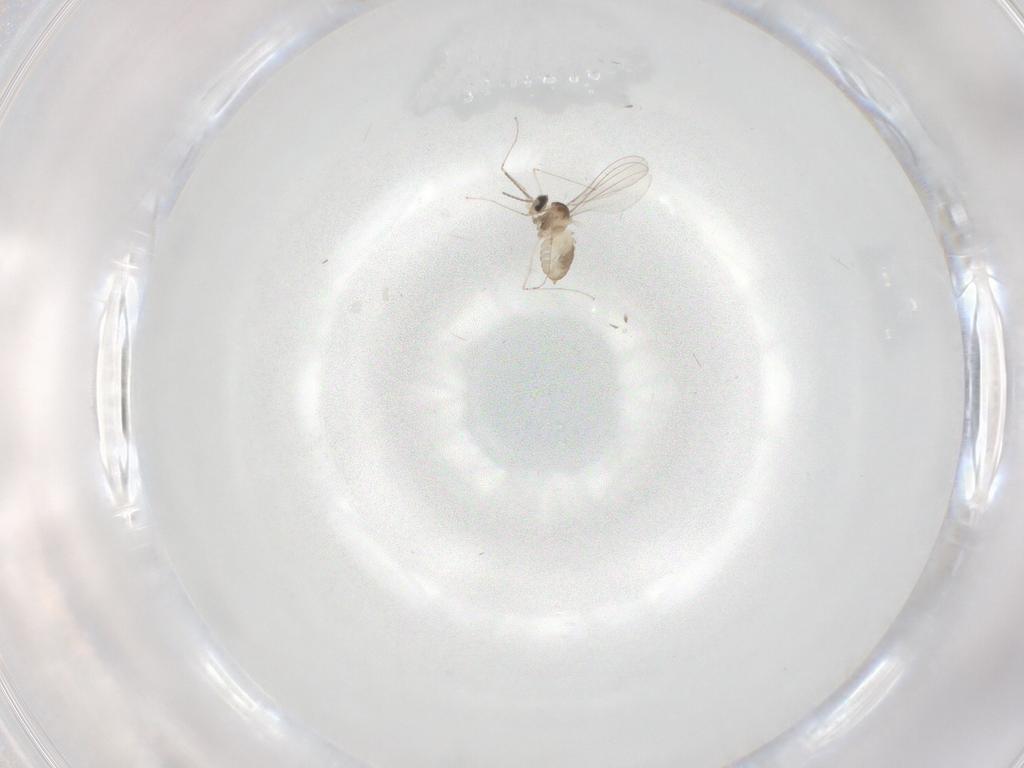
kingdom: Animalia
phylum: Arthropoda
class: Insecta
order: Diptera
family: Cecidomyiidae
